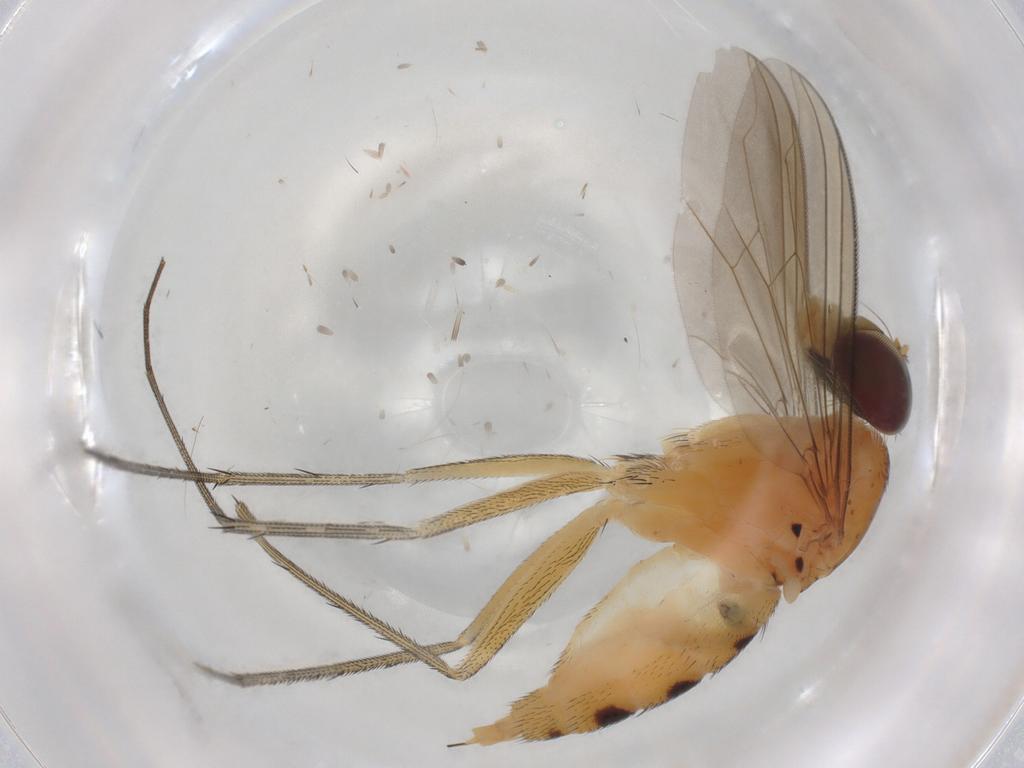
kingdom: Animalia
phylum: Arthropoda
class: Insecta
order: Diptera
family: Dolichopodidae
